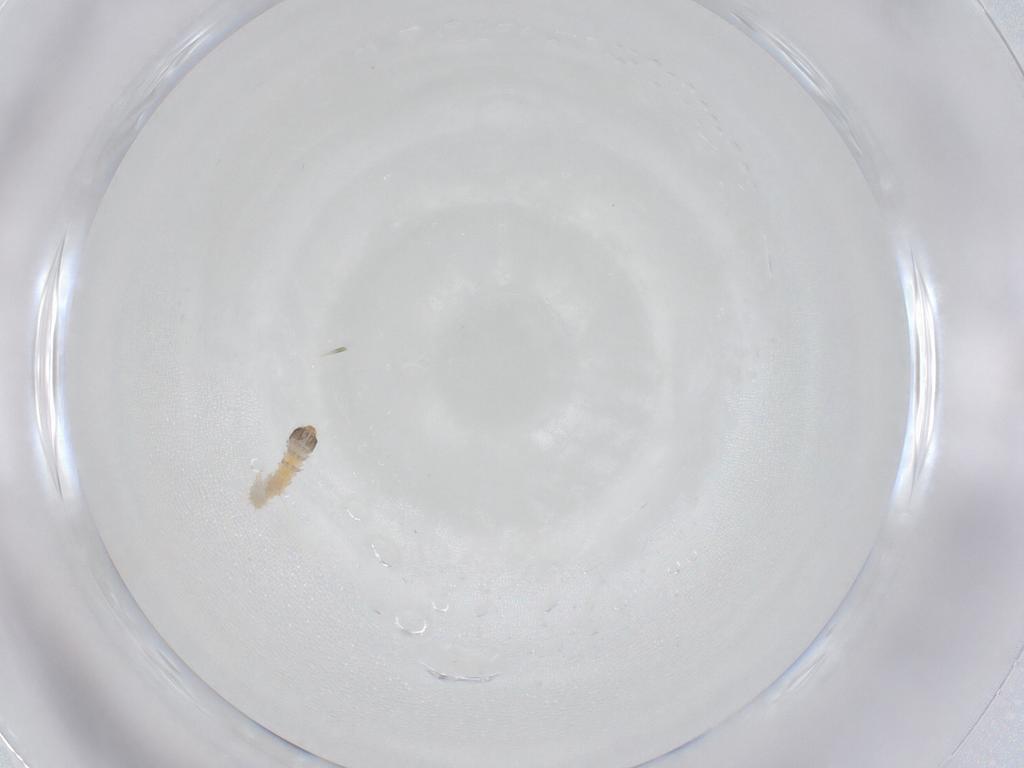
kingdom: Animalia
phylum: Arthropoda
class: Insecta
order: Lepidoptera
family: Crambidae
